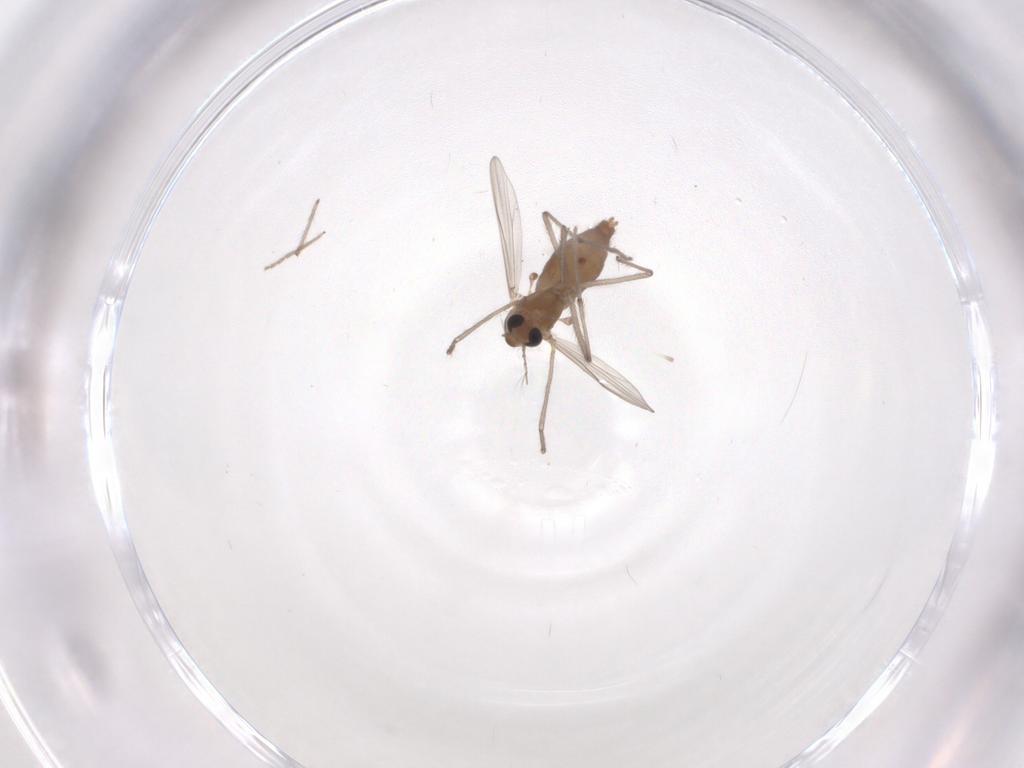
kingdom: Animalia
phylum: Arthropoda
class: Insecta
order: Diptera
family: Chironomidae
